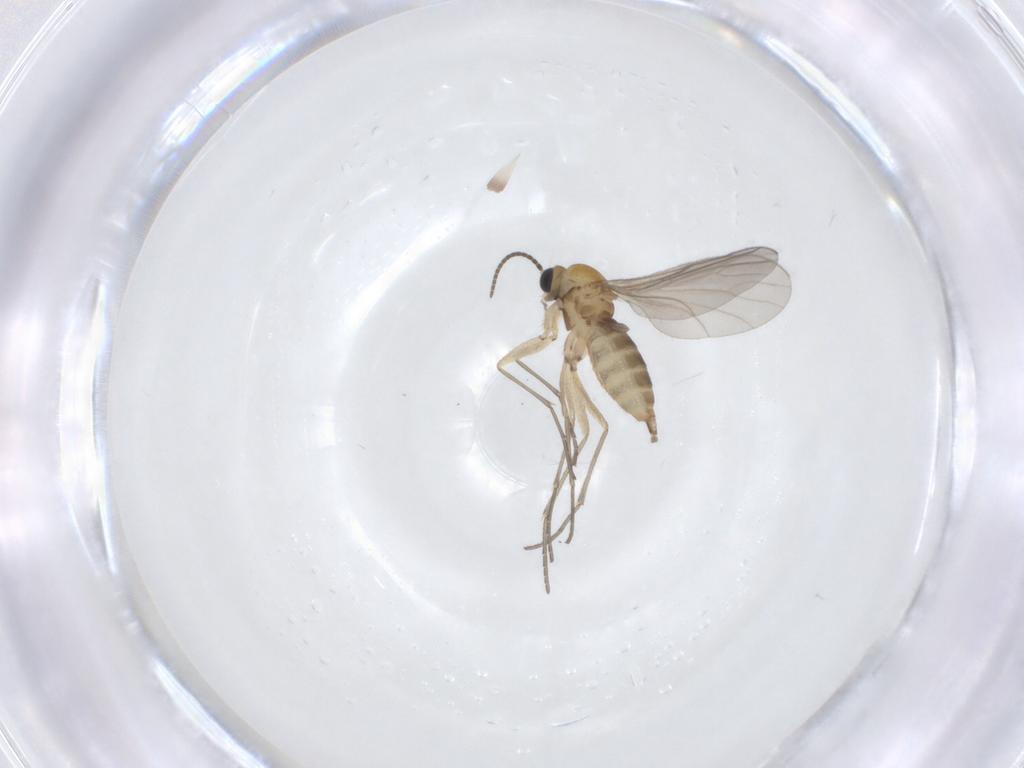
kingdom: Animalia
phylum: Arthropoda
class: Insecta
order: Diptera
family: Sciaridae
